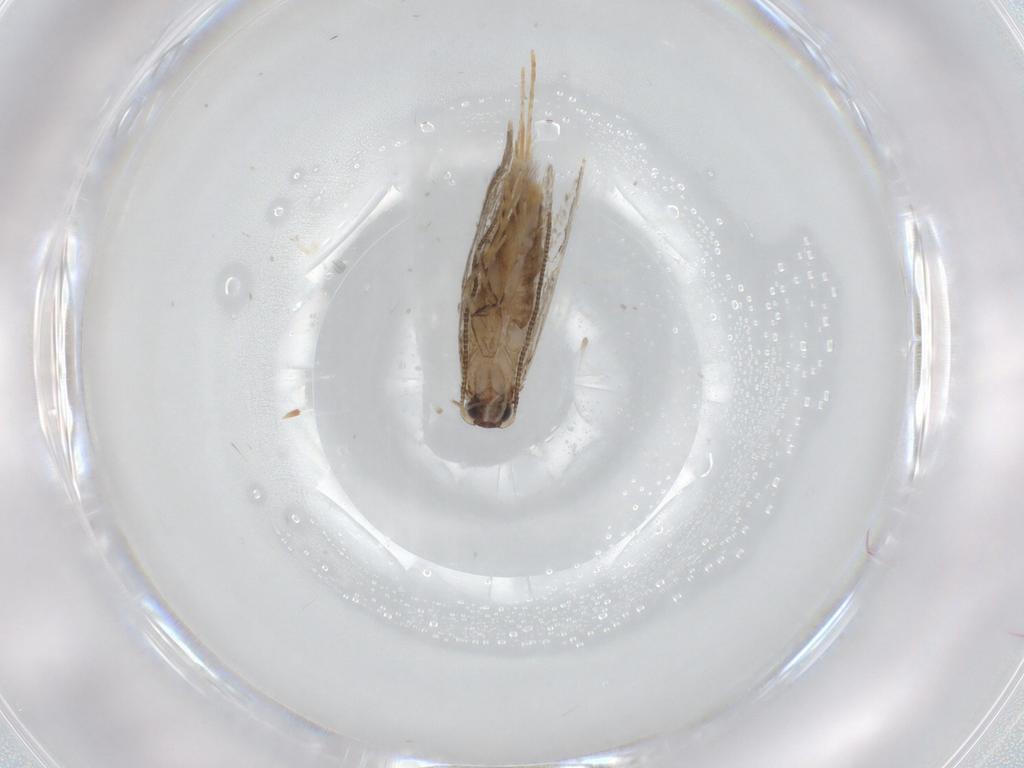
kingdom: Animalia
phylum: Arthropoda
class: Insecta
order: Lepidoptera
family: Tineidae
